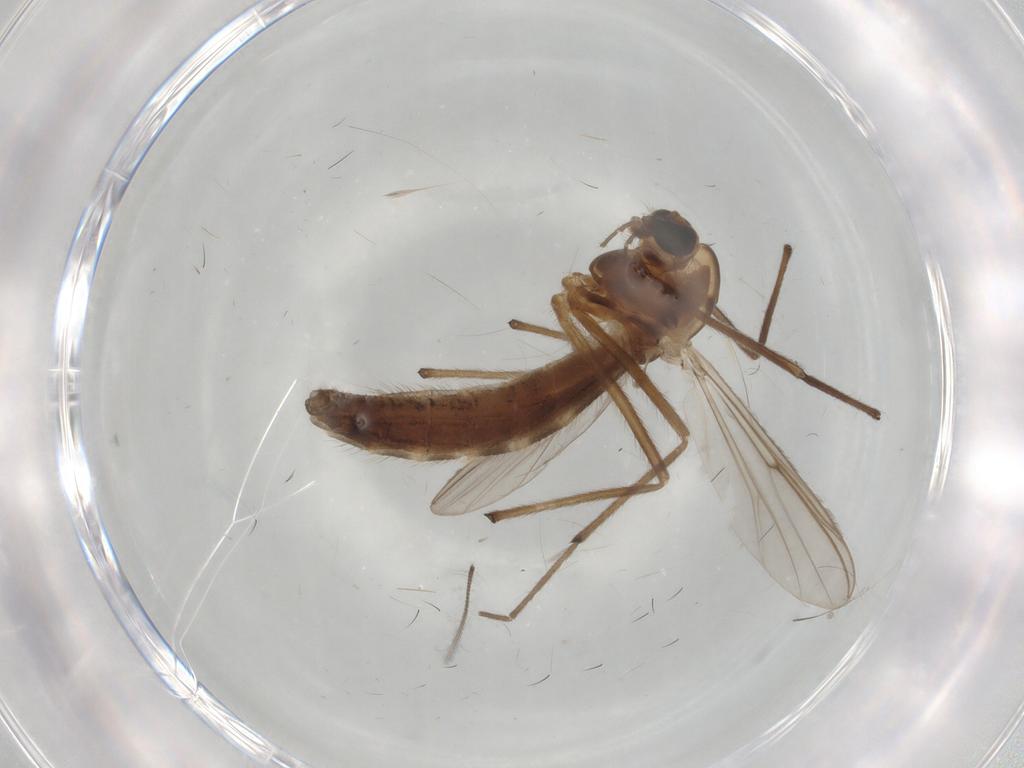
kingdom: Animalia
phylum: Arthropoda
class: Insecta
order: Diptera
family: Chironomidae
